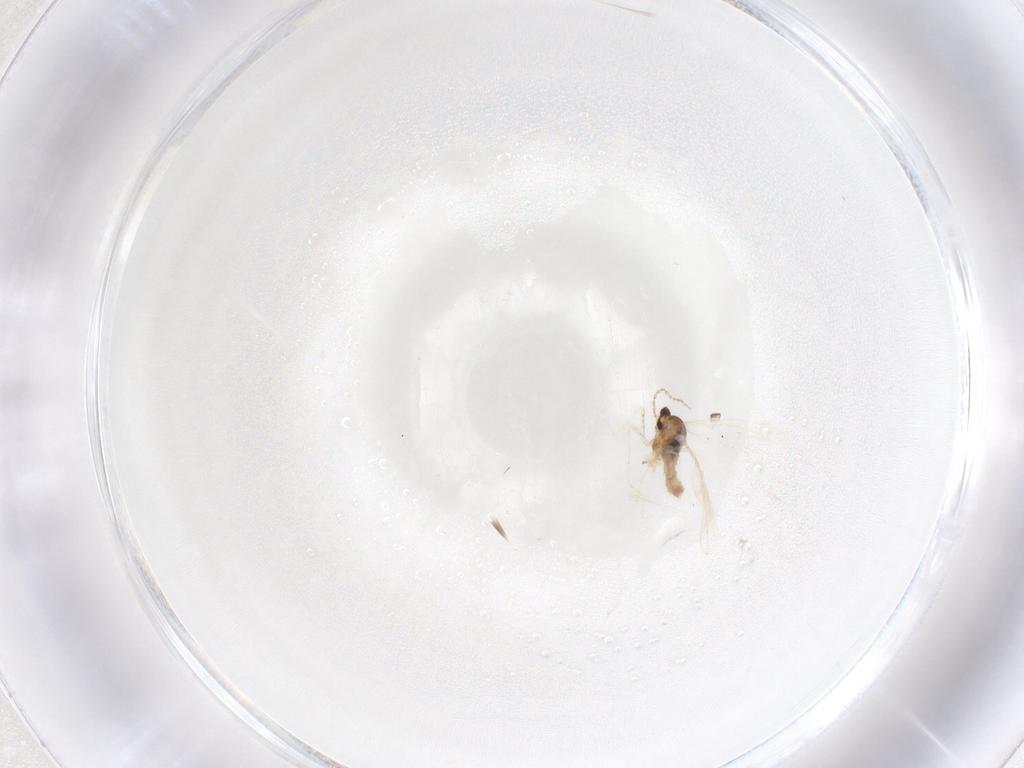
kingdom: Animalia
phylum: Arthropoda
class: Insecta
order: Diptera
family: Cecidomyiidae
